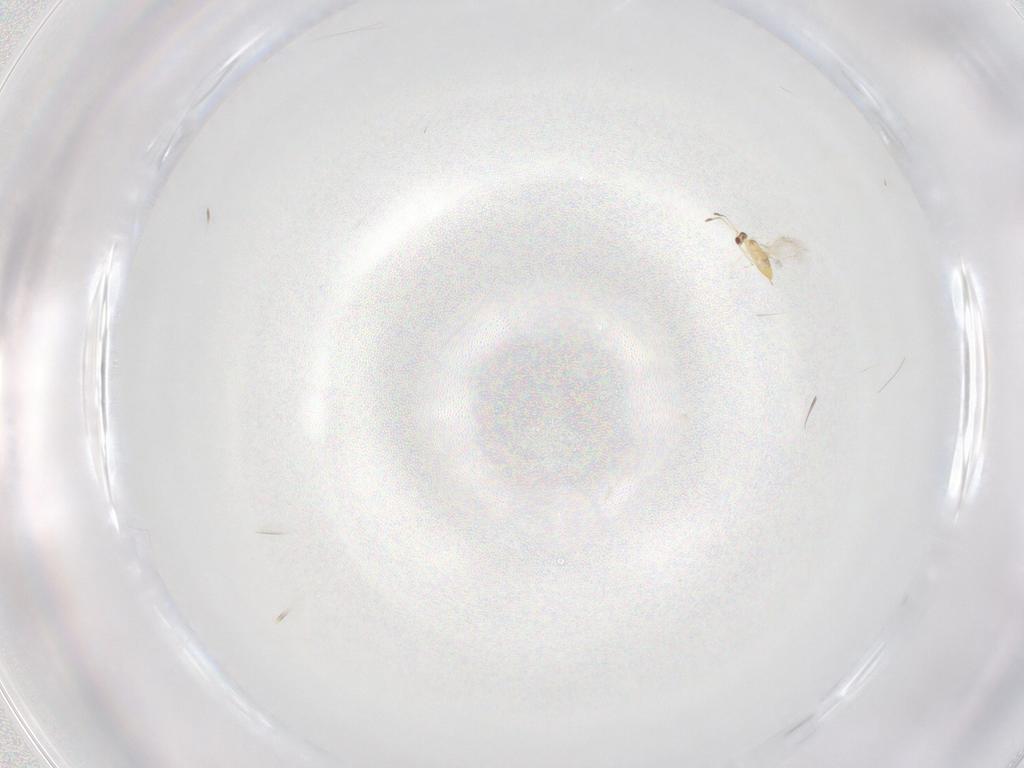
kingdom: Animalia
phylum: Arthropoda
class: Insecta
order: Hymenoptera
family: Mymaridae
